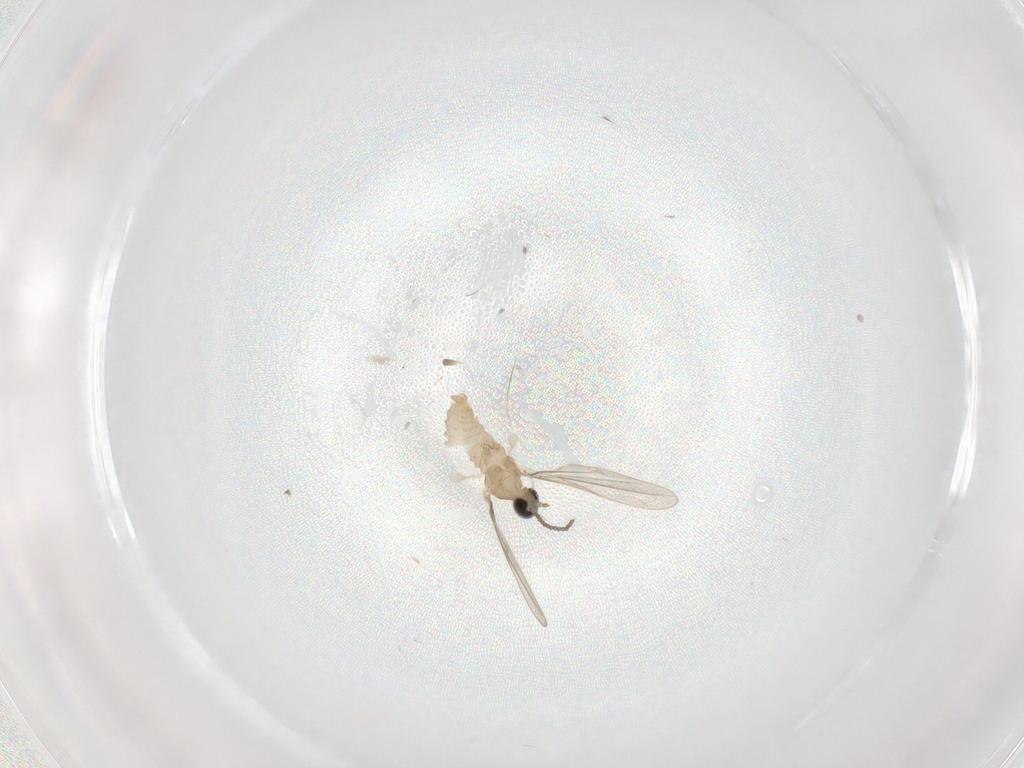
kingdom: Animalia
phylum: Arthropoda
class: Insecta
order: Diptera
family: Cecidomyiidae
